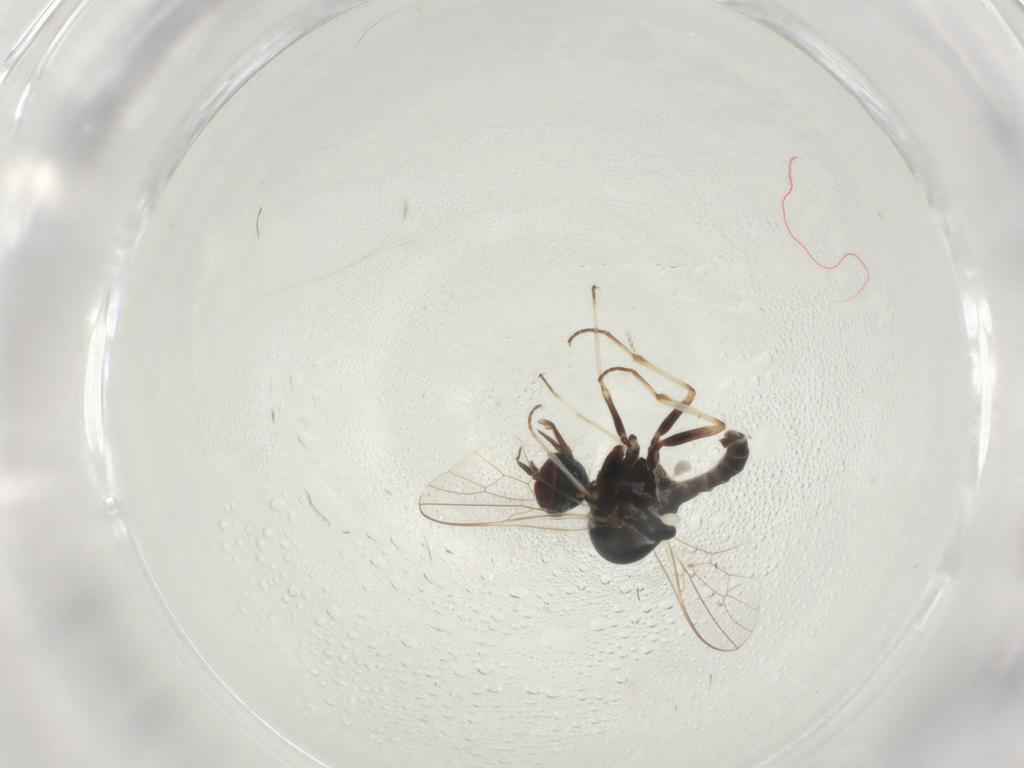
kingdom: Animalia
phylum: Arthropoda
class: Insecta
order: Diptera
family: Bombyliidae
